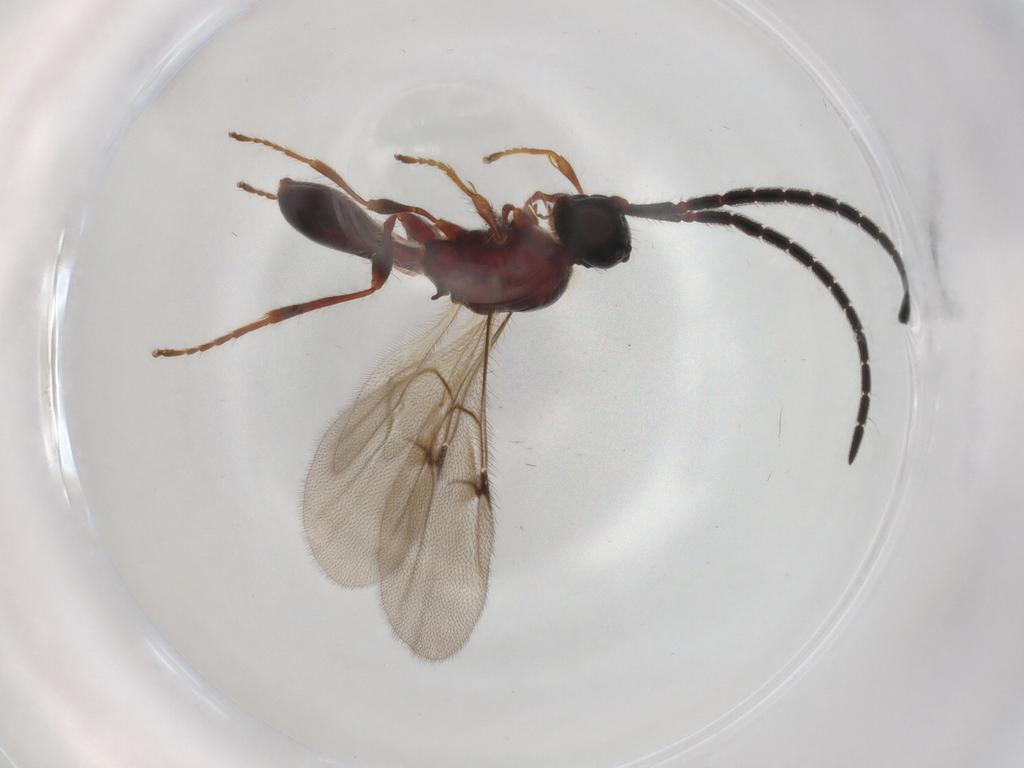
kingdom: Animalia
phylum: Arthropoda
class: Insecta
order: Hymenoptera
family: Diapriidae
